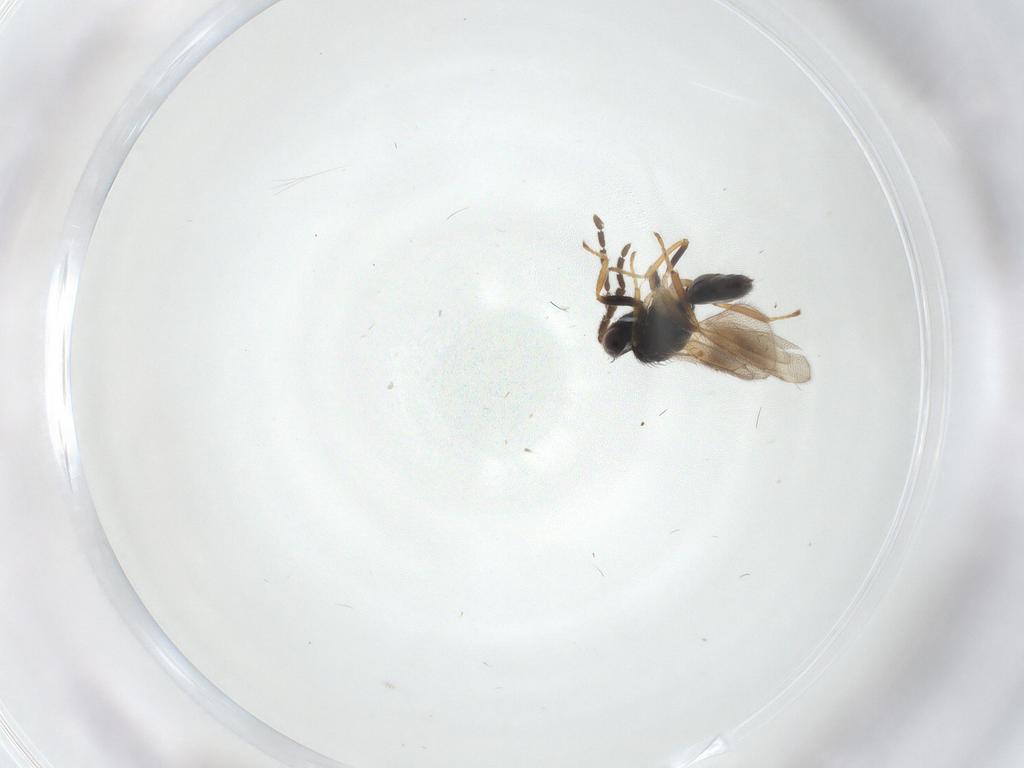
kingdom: Animalia
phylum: Arthropoda
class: Insecta
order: Hymenoptera
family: Eulophidae
